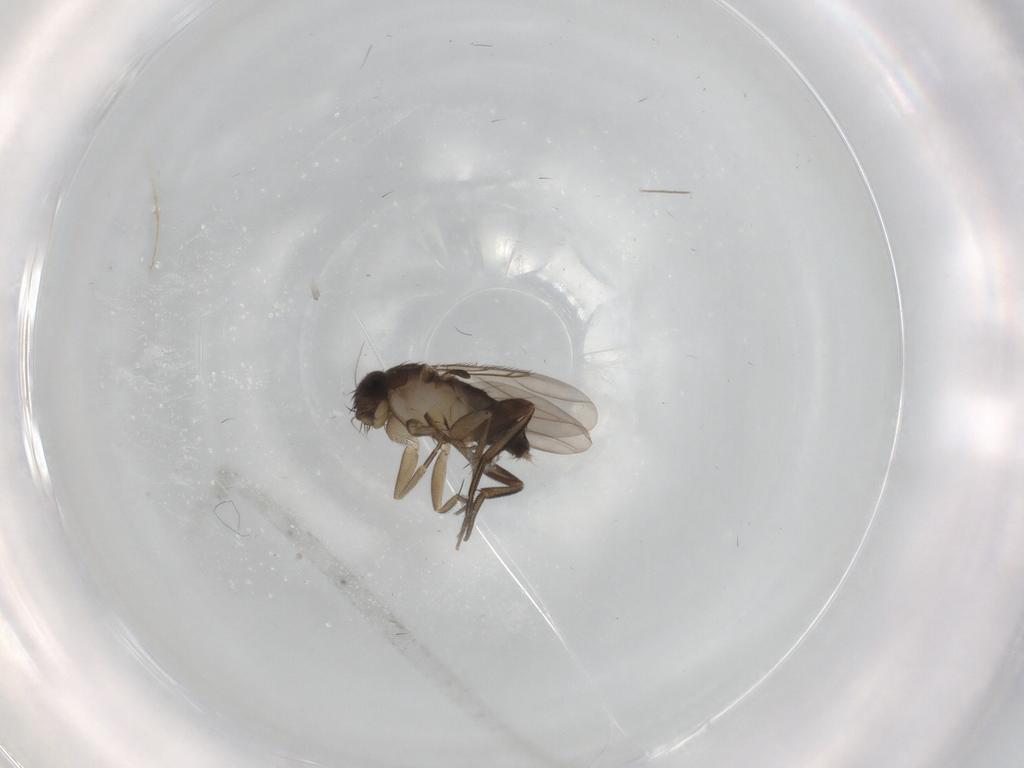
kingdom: Animalia
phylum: Arthropoda
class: Insecta
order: Diptera
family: Phoridae
